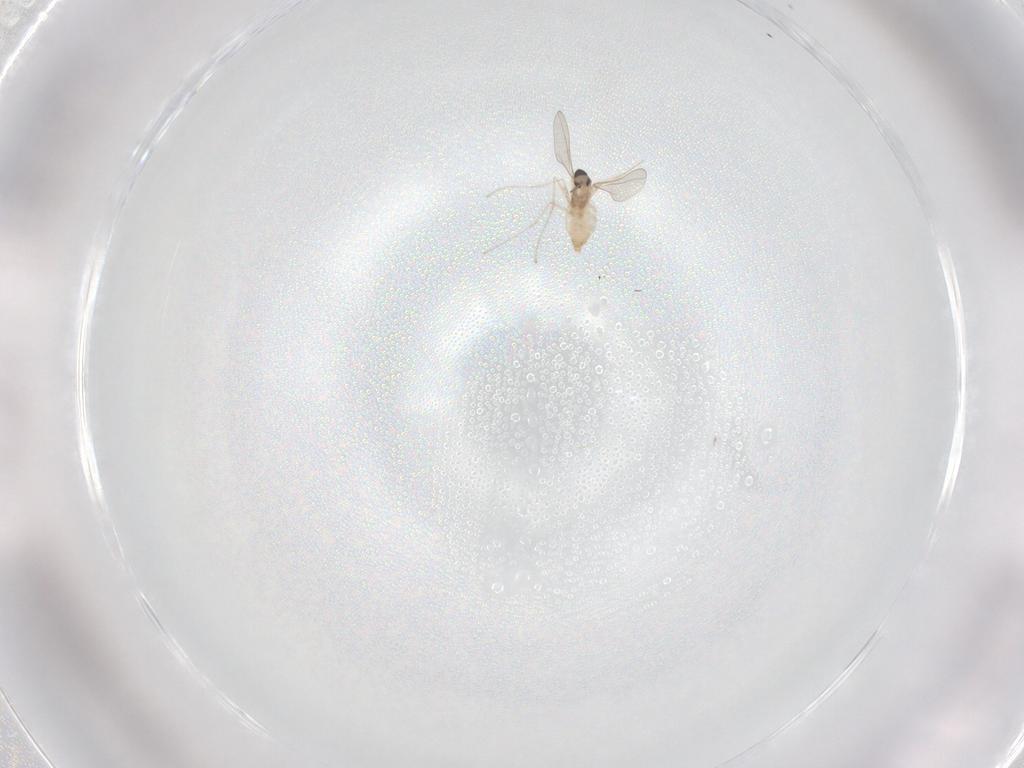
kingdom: Animalia
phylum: Arthropoda
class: Insecta
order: Diptera
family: Cecidomyiidae
